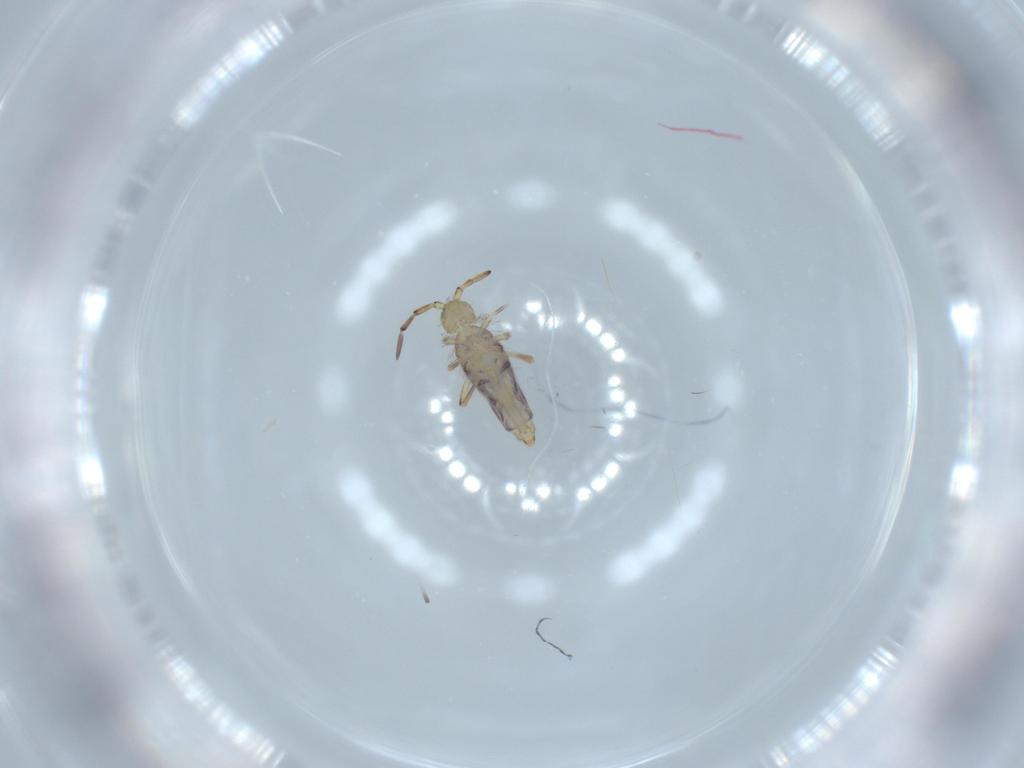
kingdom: Animalia
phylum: Arthropoda
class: Collembola
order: Entomobryomorpha
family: Entomobryidae
